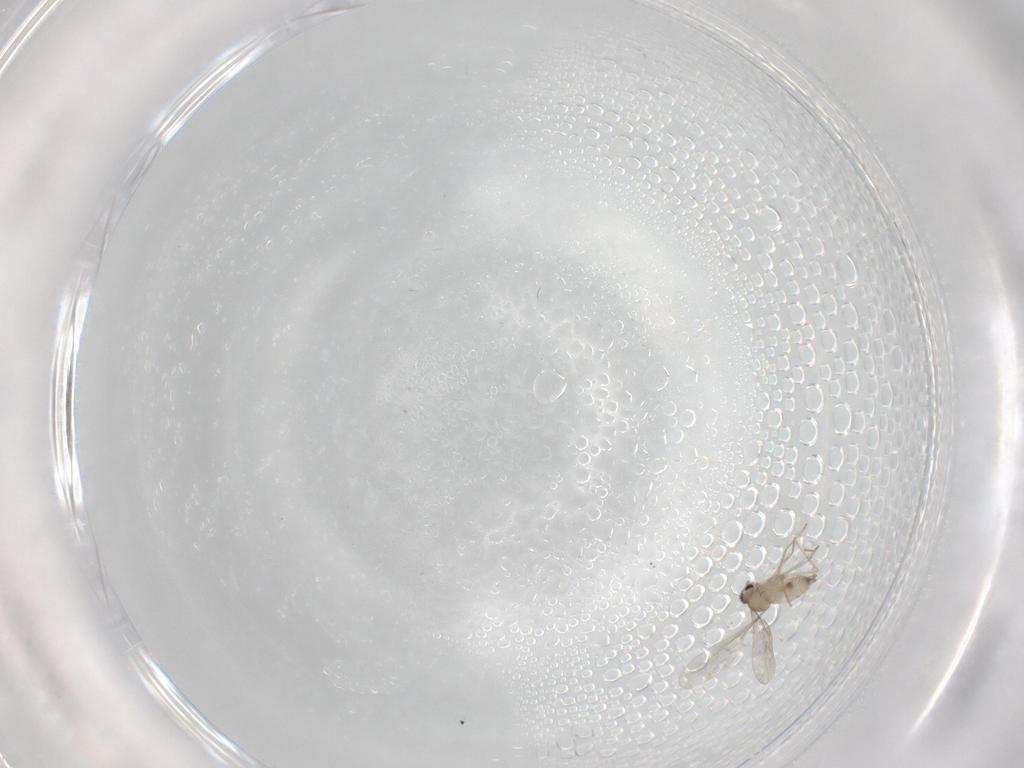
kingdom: Animalia
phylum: Arthropoda
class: Insecta
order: Diptera
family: Cecidomyiidae
